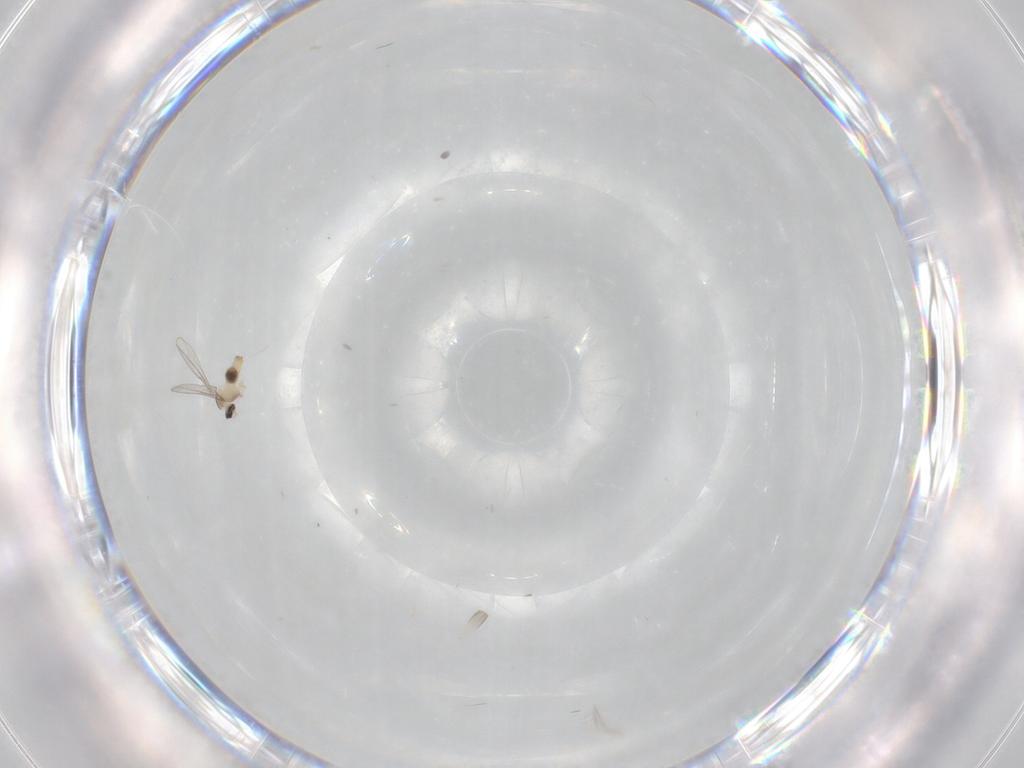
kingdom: Animalia
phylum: Arthropoda
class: Insecta
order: Diptera
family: Cecidomyiidae
